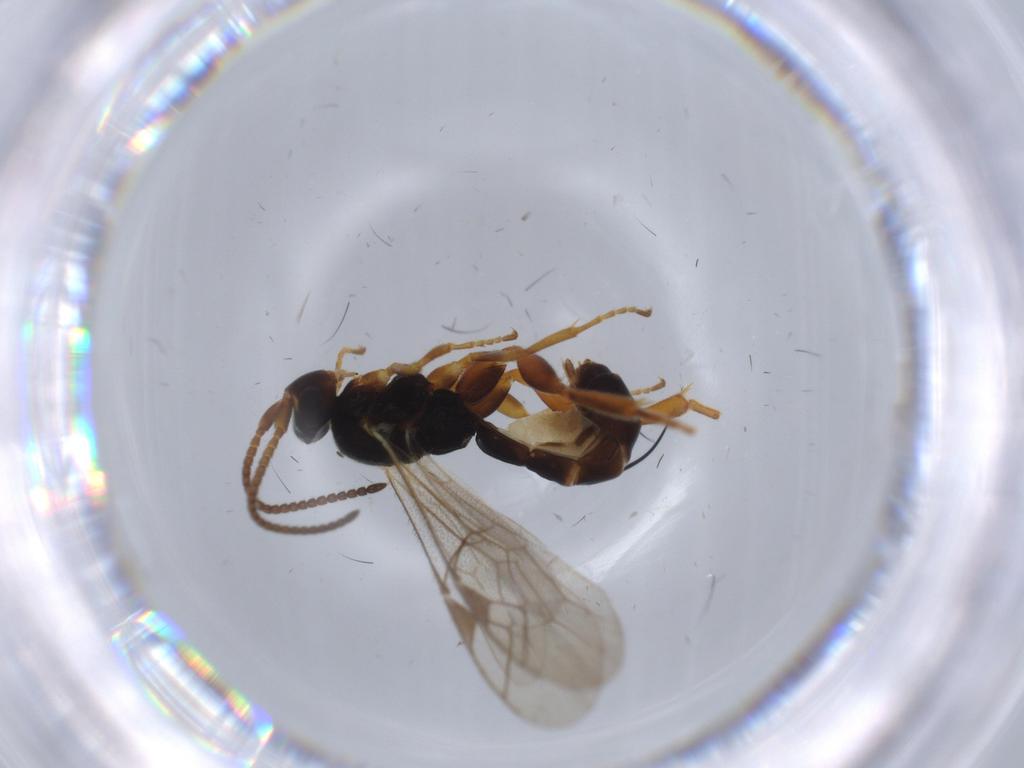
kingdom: Animalia
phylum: Arthropoda
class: Insecta
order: Hymenoptera
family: Ichneumonidae
